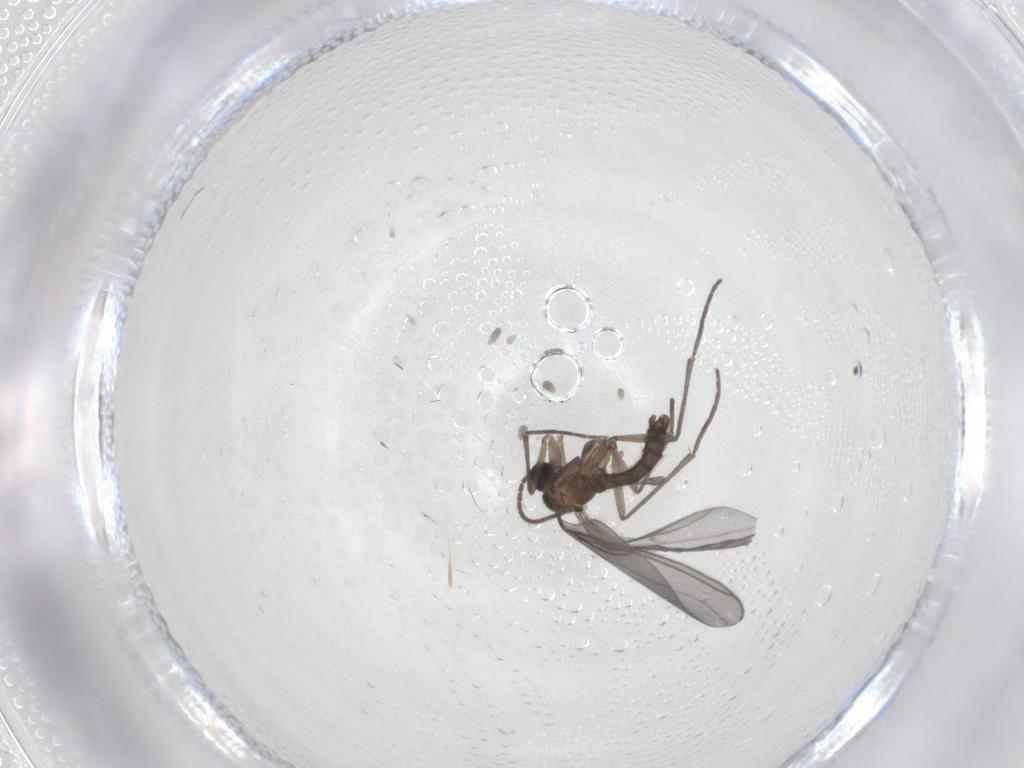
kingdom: Animalia
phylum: Arthropoda
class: Insecta
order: Diptera
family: Sciaridae
